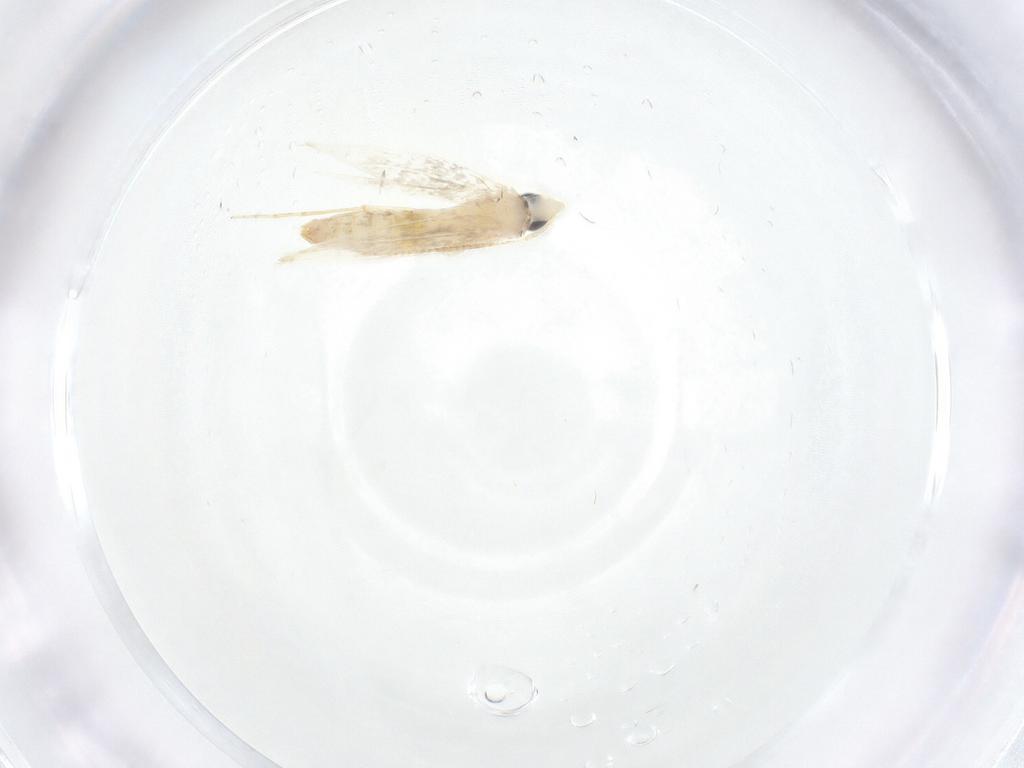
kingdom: Animalia
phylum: Arthropoda
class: Insecta
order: Lepidoptera
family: Tineidae
